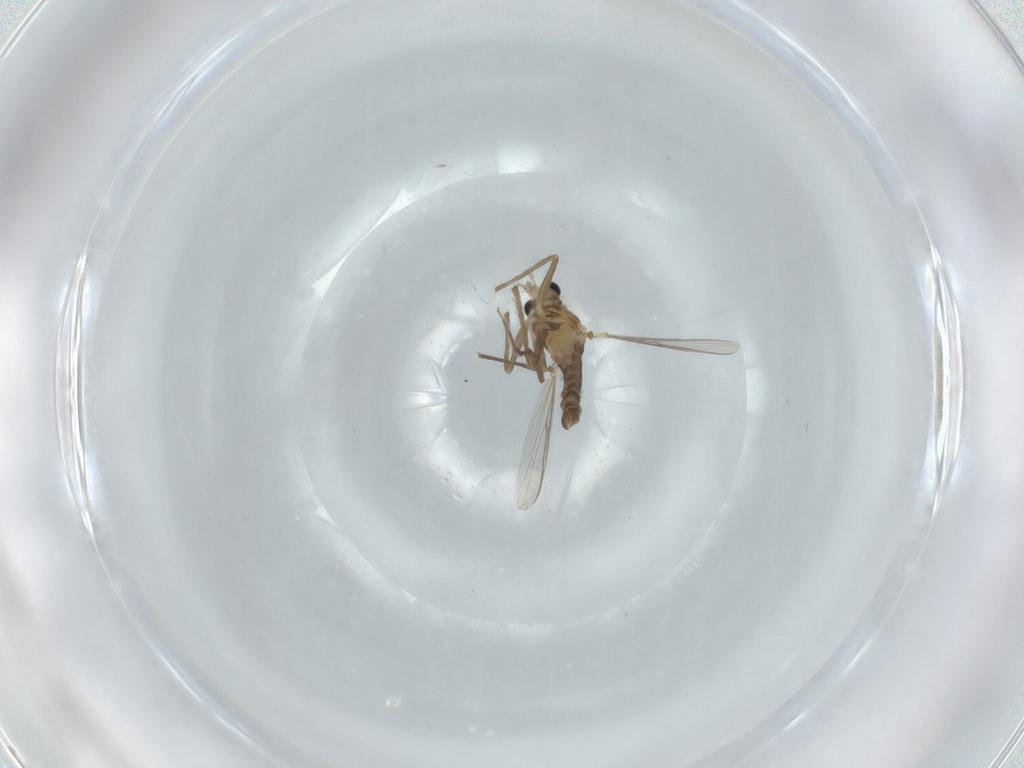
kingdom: Animalia
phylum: Arthropoda
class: Insecta
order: Diptera
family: Chironomidae
